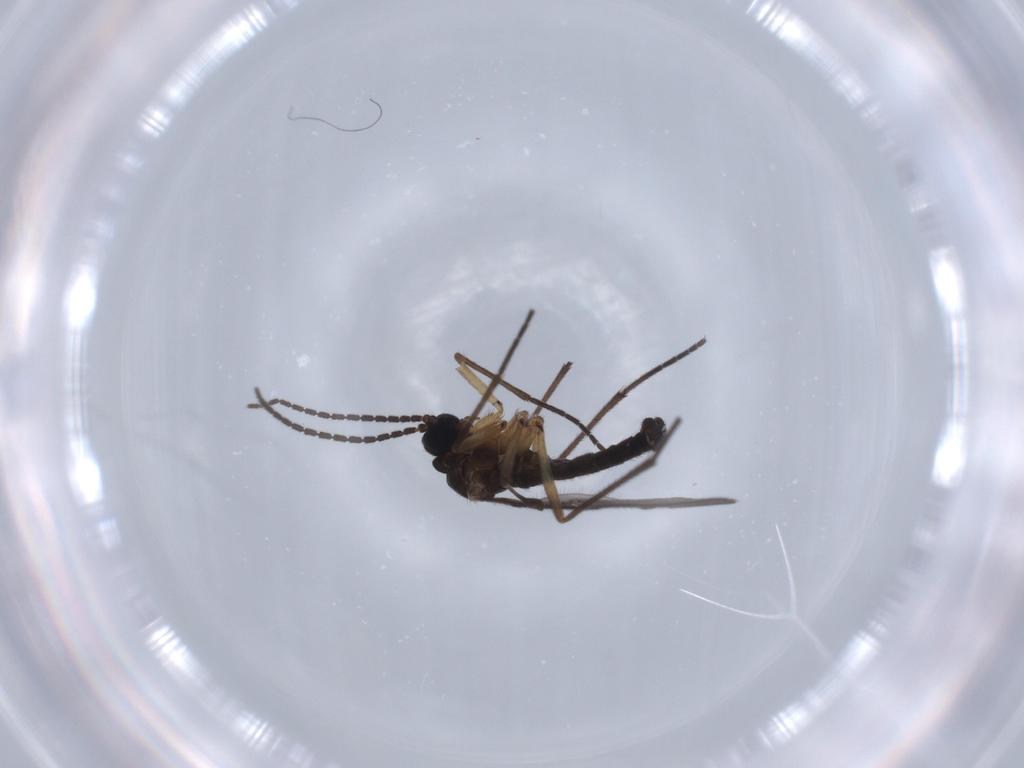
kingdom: Animalia
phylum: Arthropoda
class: Insecta
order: Diptera
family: Sciaridae
